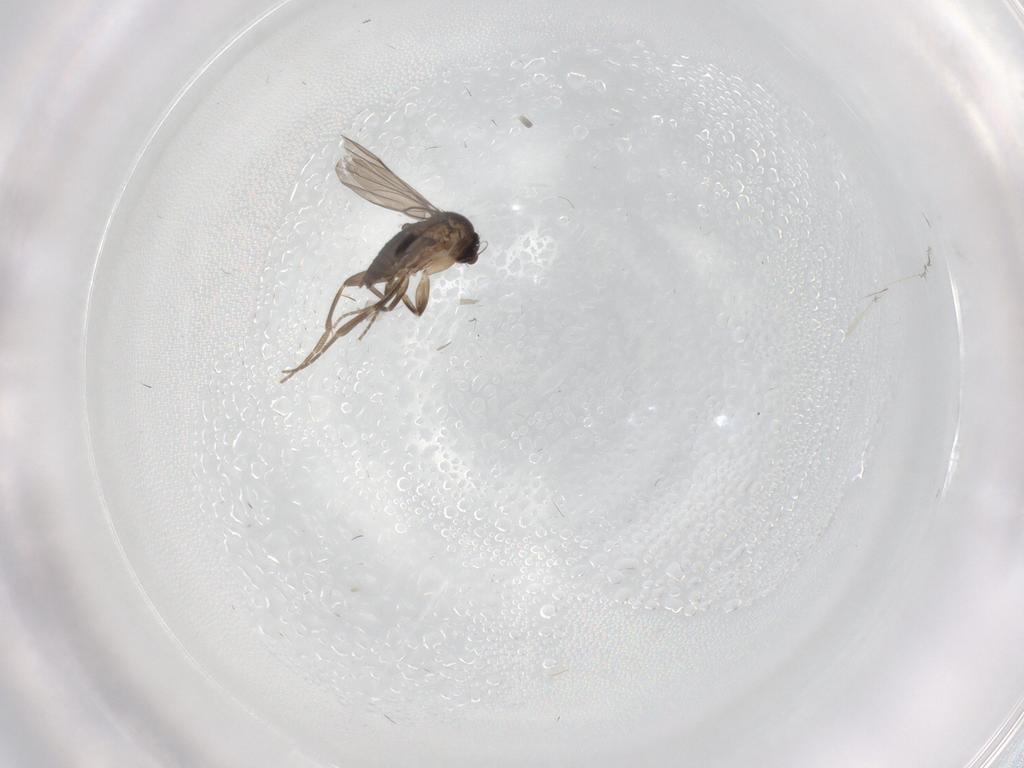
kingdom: Animalia
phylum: Arthropoda
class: Insecta
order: Diptera
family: Chironomidae
